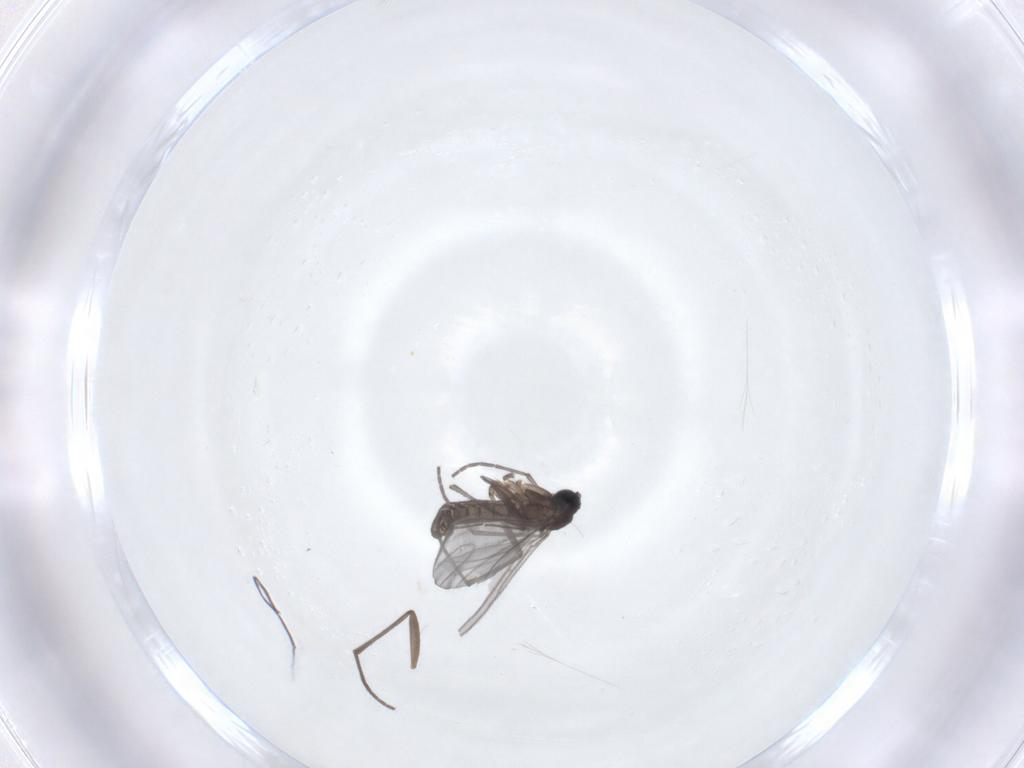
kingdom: Animalia
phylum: Arthropoda
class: Insecta
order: Diptera
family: Sciaridae
